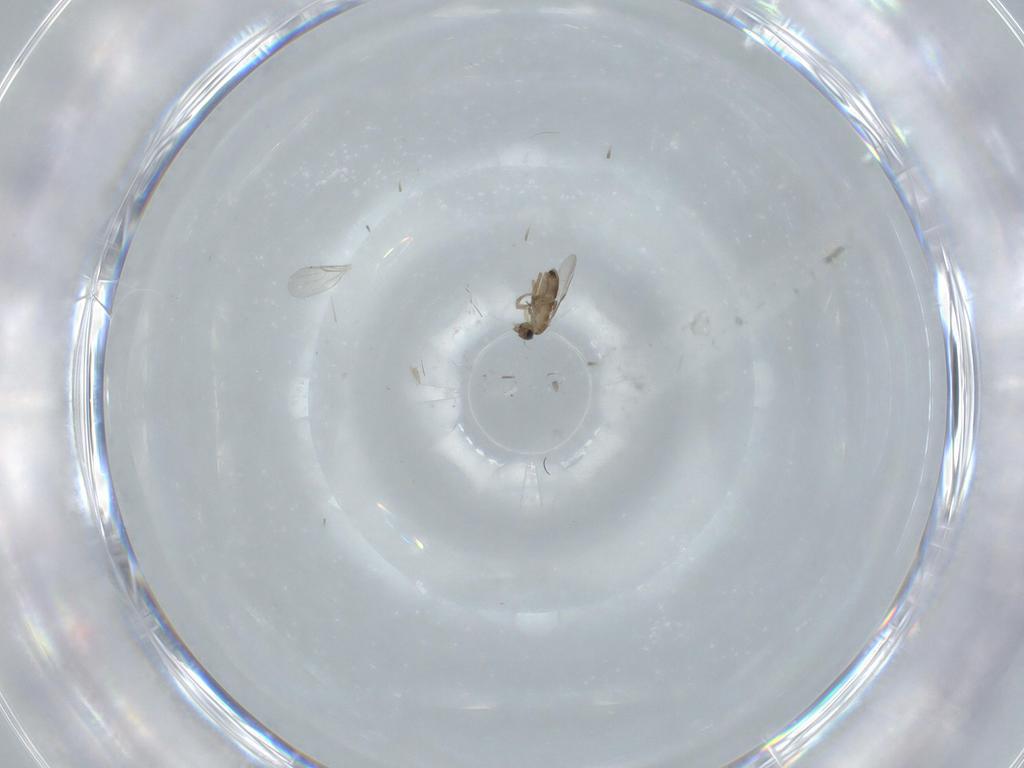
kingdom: Animalia
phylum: Arthropoda
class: Insecta
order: Diptera
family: Phoridae
